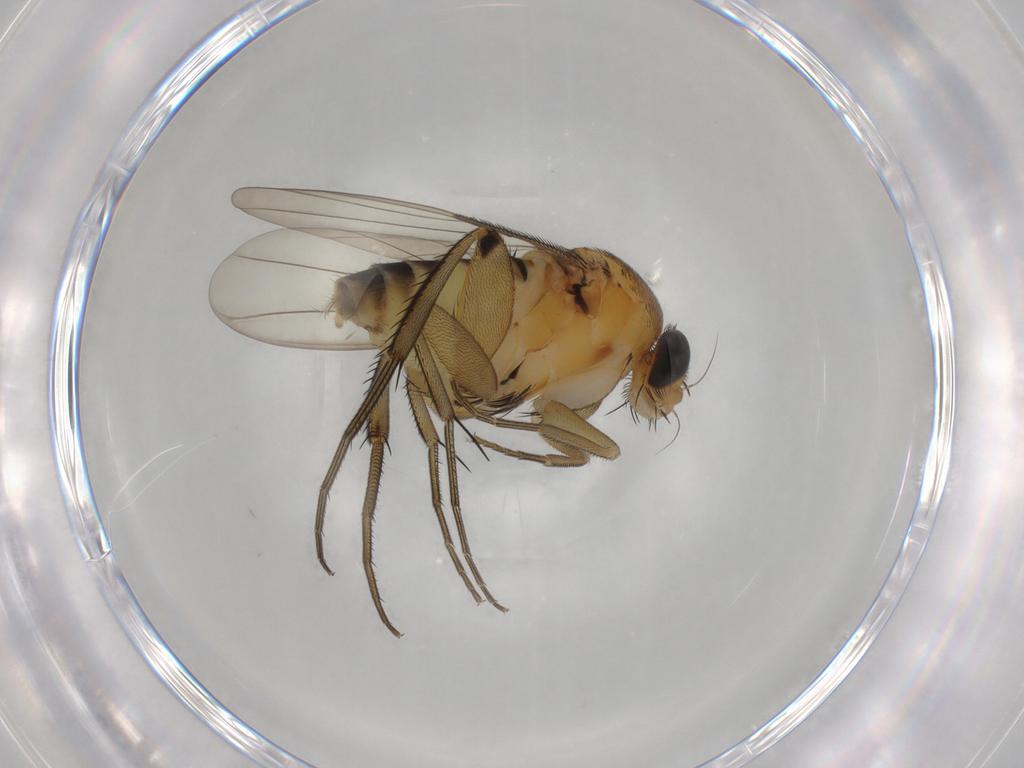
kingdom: Animalia
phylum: Arthropoda
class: Insecta
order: Diptera
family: Phoridae
